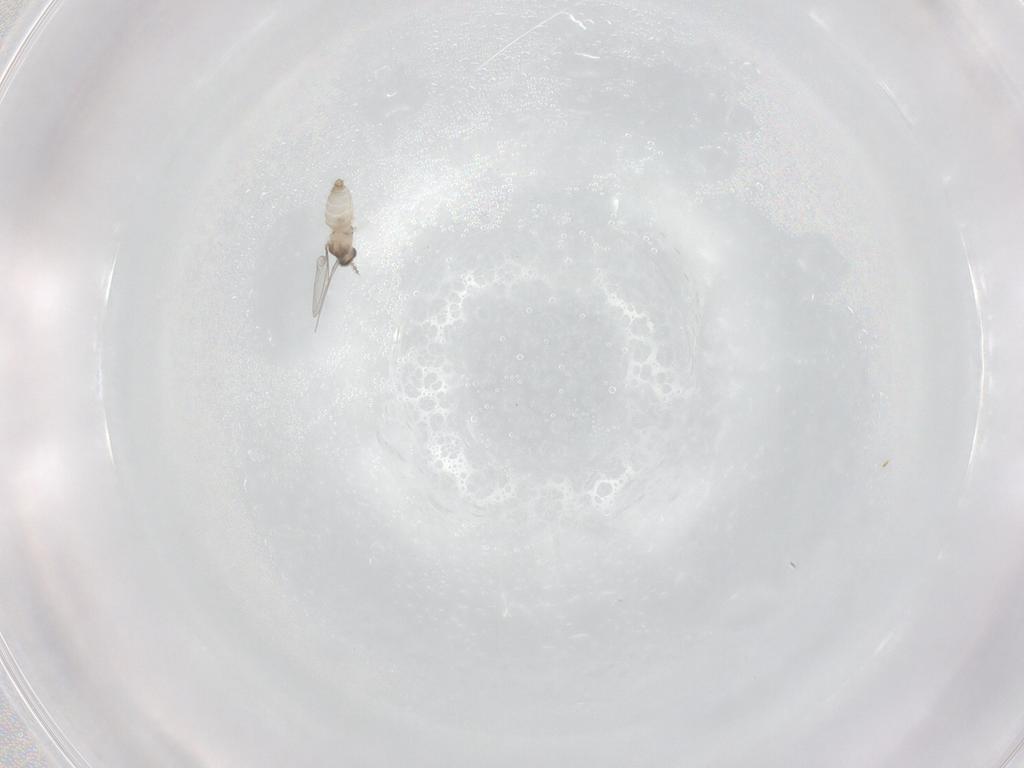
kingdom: Animalia
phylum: Arthropoda
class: Insecta
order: Diptera
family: Cecidomyiidae
